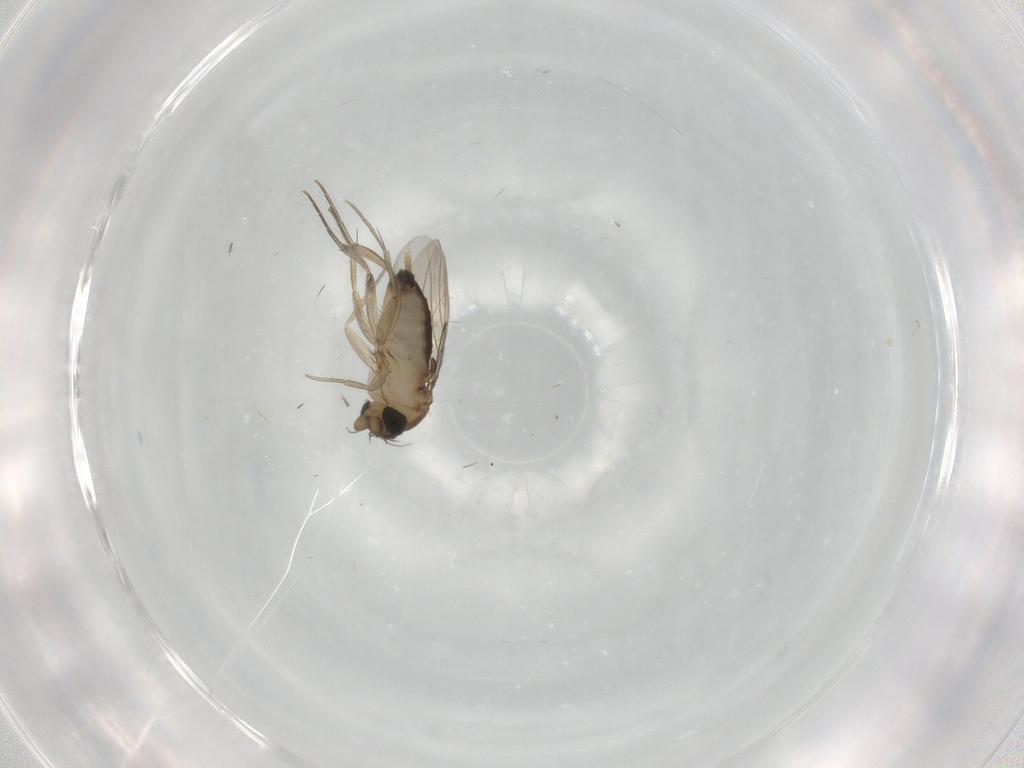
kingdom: Animalia
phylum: Arthropoda
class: Insecta
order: Diptera
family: Phoridae
